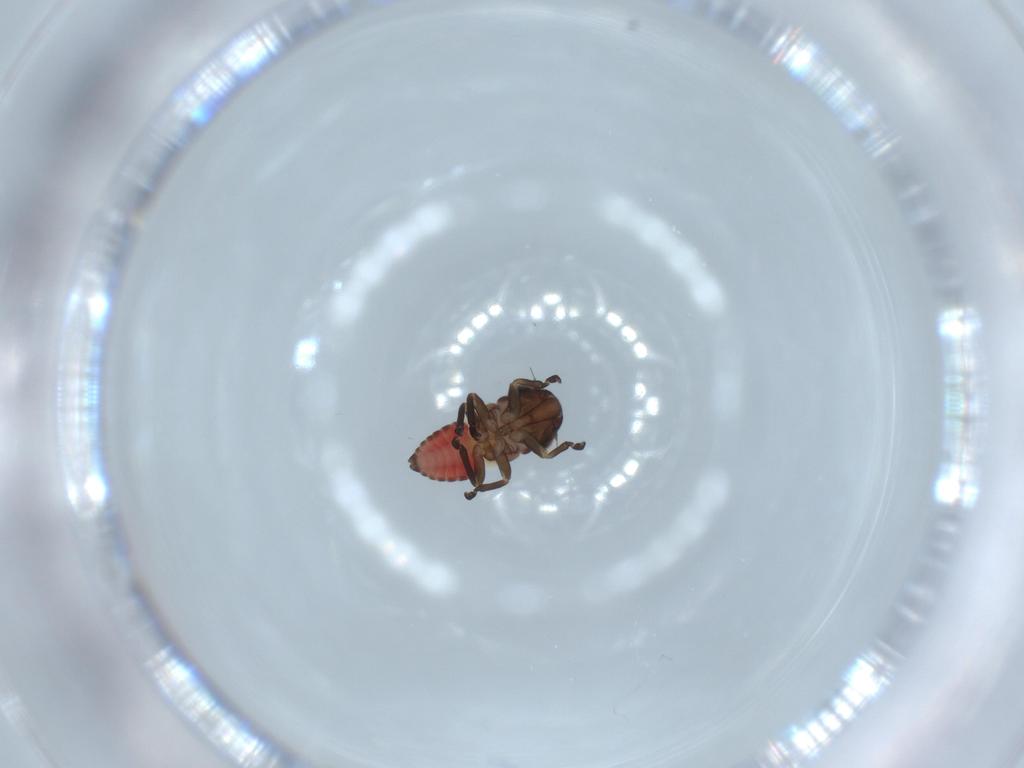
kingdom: Animalia
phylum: Arthropoda
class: Insecta
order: Hemiptera
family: Cicadellidae
